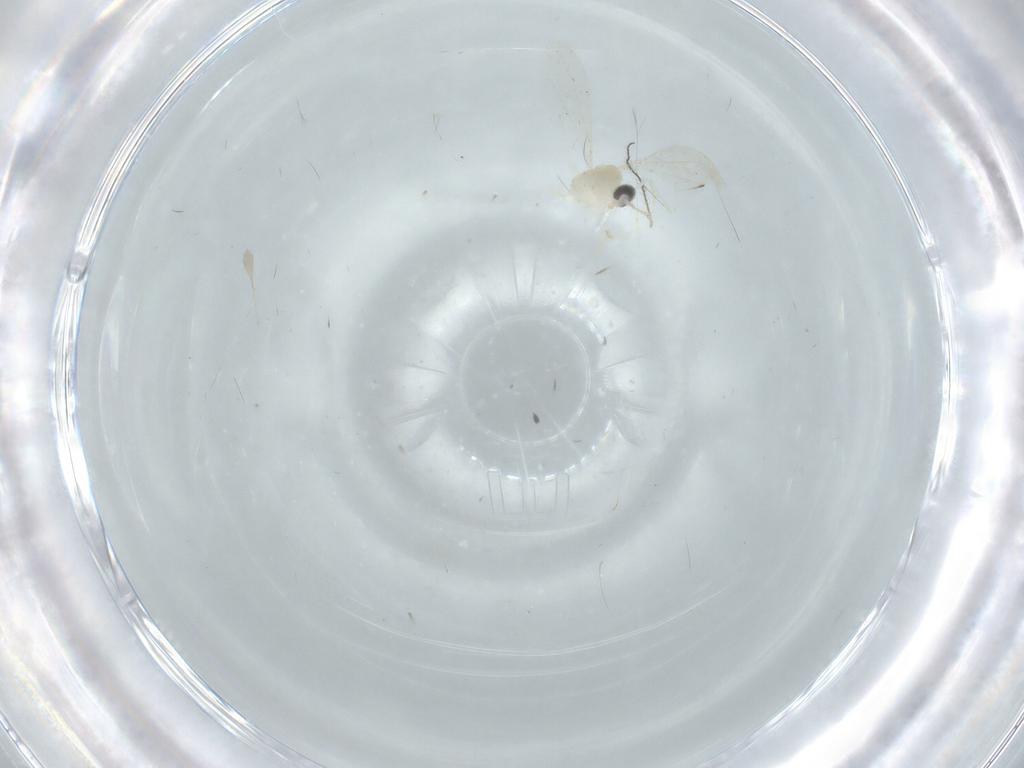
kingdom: Animalia
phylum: Arthropoda
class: Insecta
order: Diptera
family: Cecidomyiidae
